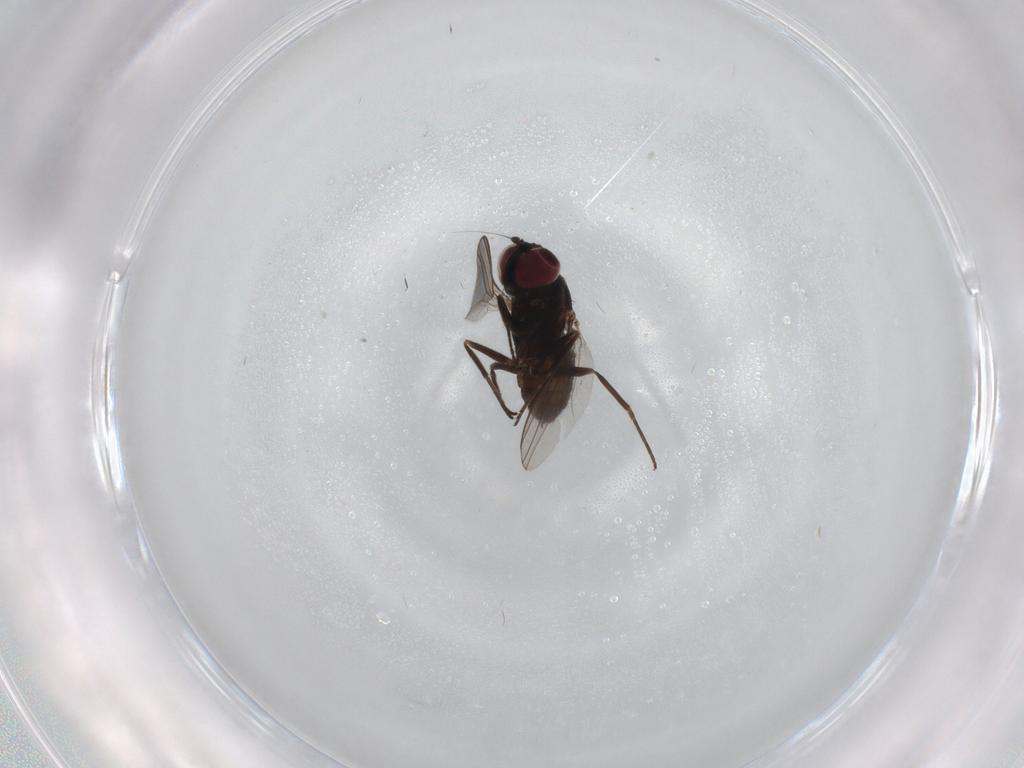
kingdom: Animalia
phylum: Arthropoda
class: Insecta
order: Diptera
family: Dolichopodidae
